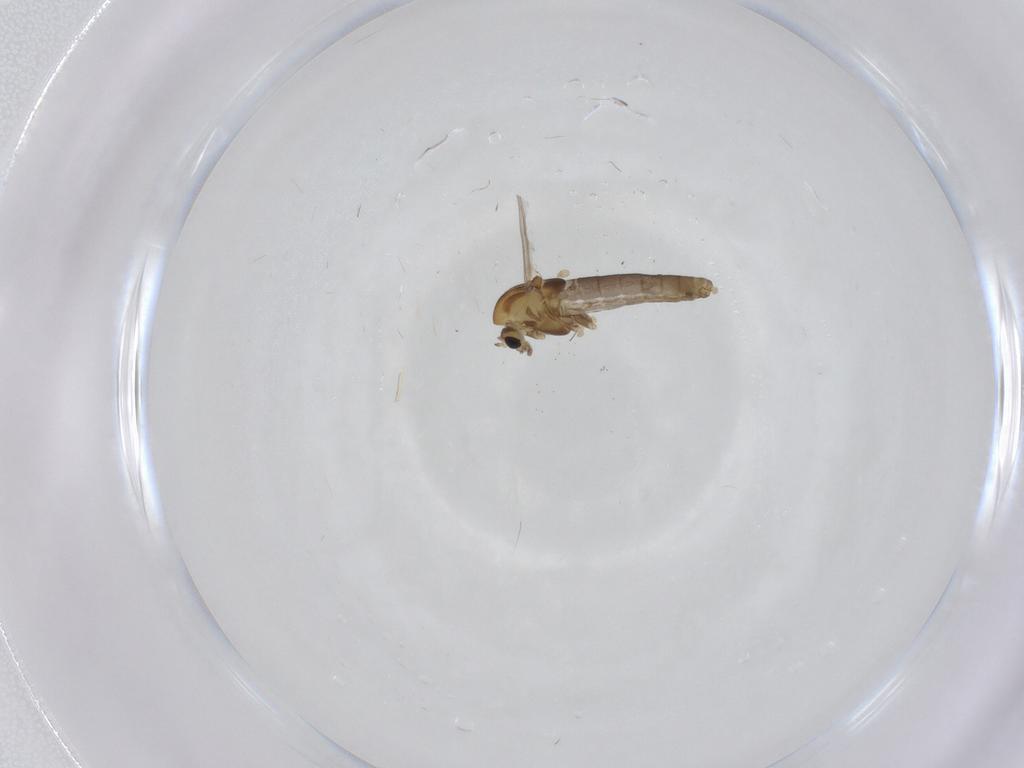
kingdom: Animalia
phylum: Arthropoda
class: Insecta
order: Diptera
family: Chironomidae
